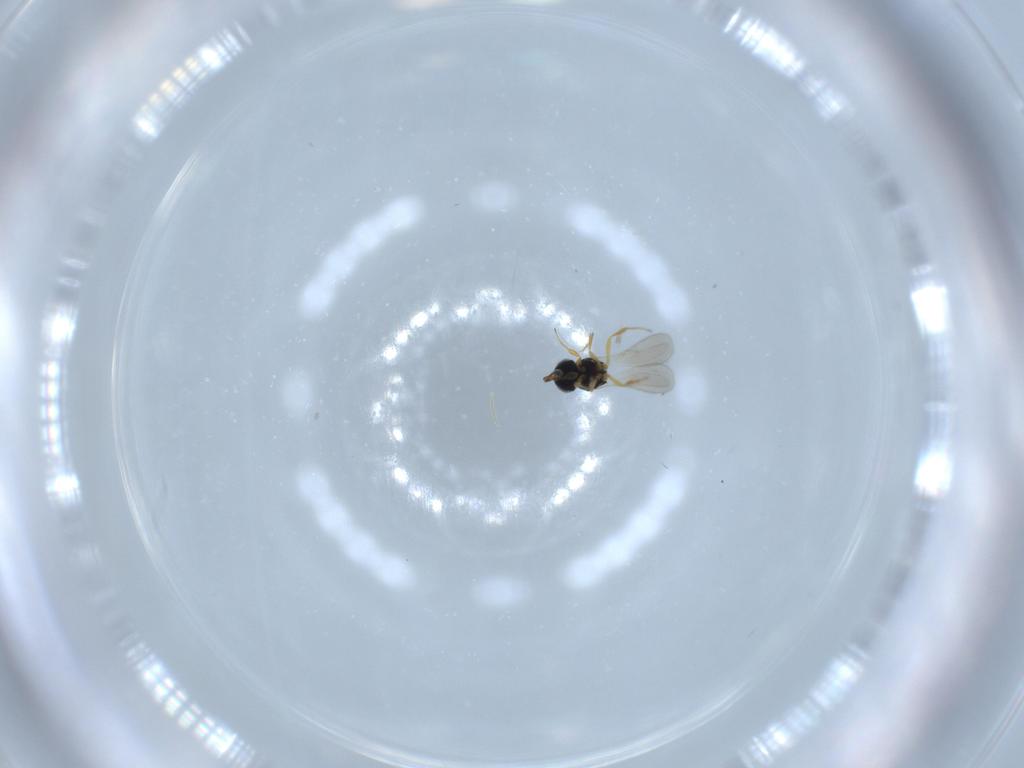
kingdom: Animalia
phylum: Arthropoda
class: Insecta
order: Hymenoptera
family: Scelionidae
